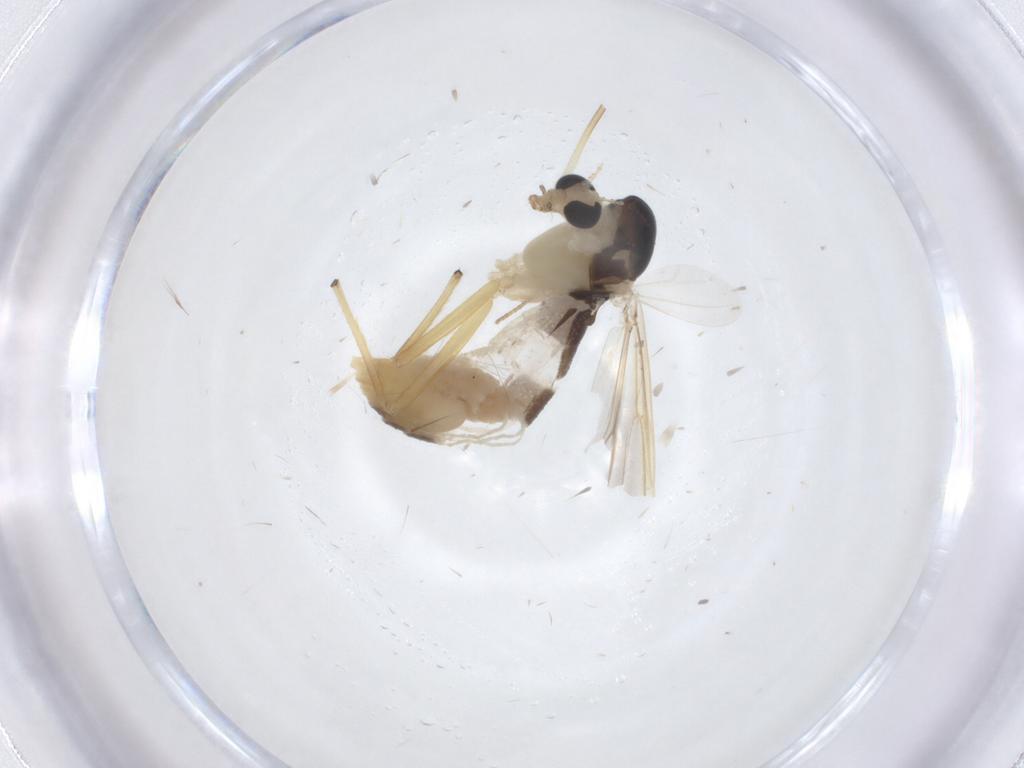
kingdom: Animalia
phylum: Arthropoda
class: Insecta
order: Diptera
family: Chironomidae
